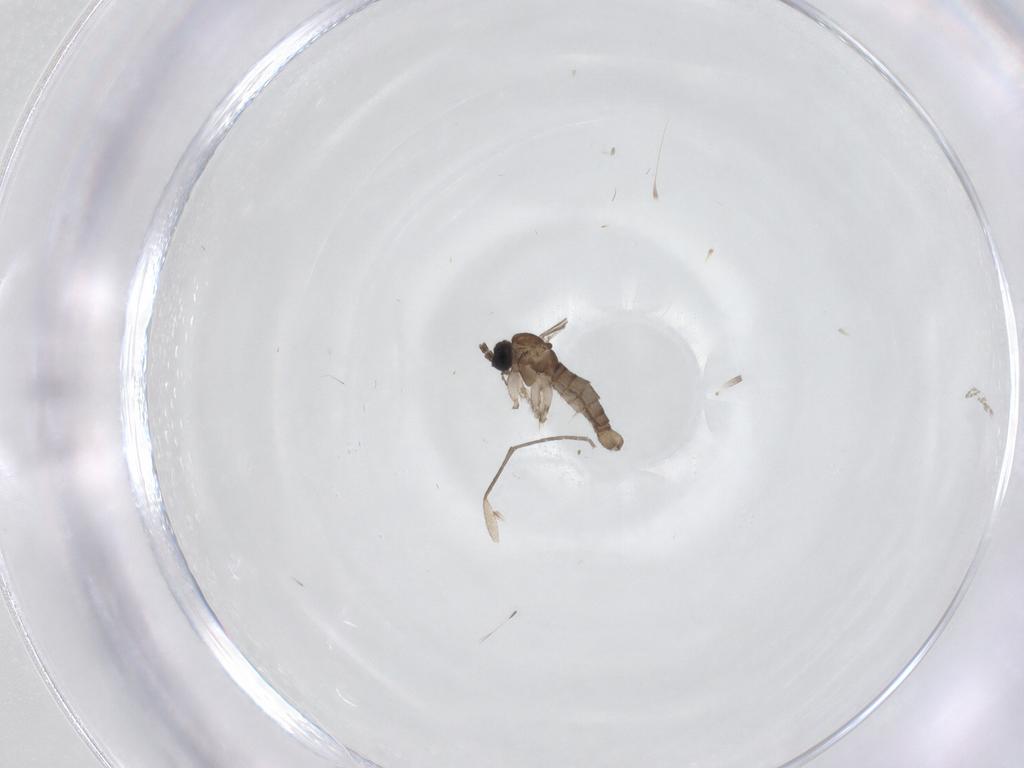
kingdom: Animalia
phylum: Arthropoda
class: Insecta
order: Diptera
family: Sciaridae
